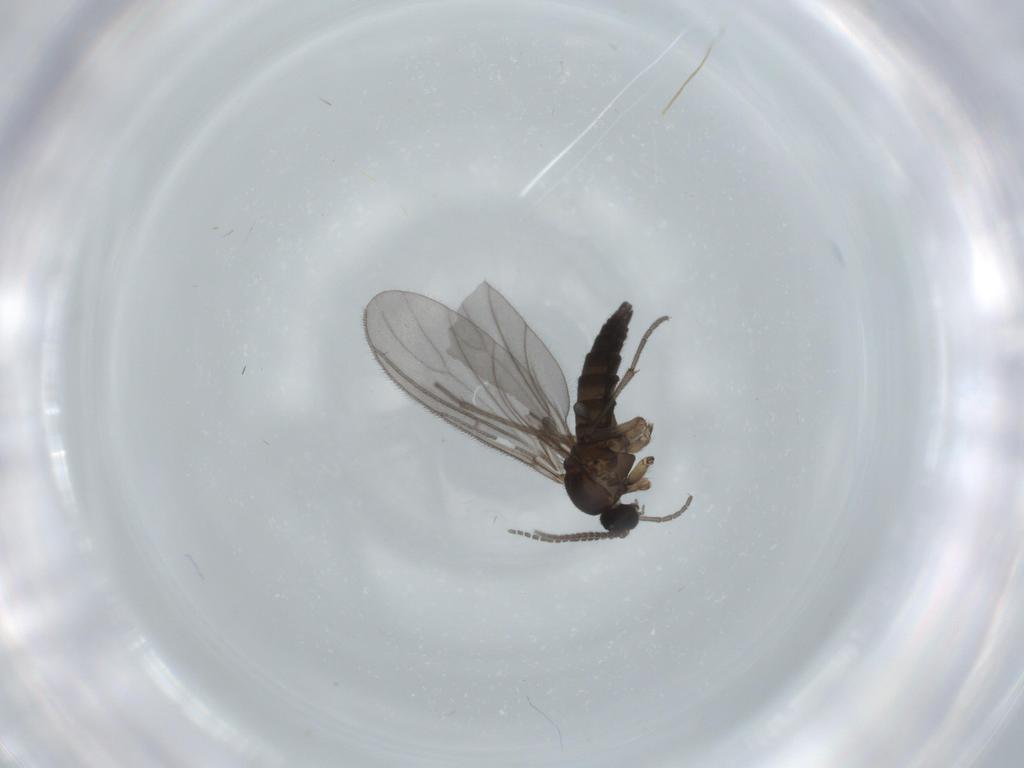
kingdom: Animalia
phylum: Arthropoda
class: Insecta
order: Diptera
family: Sciaridae
